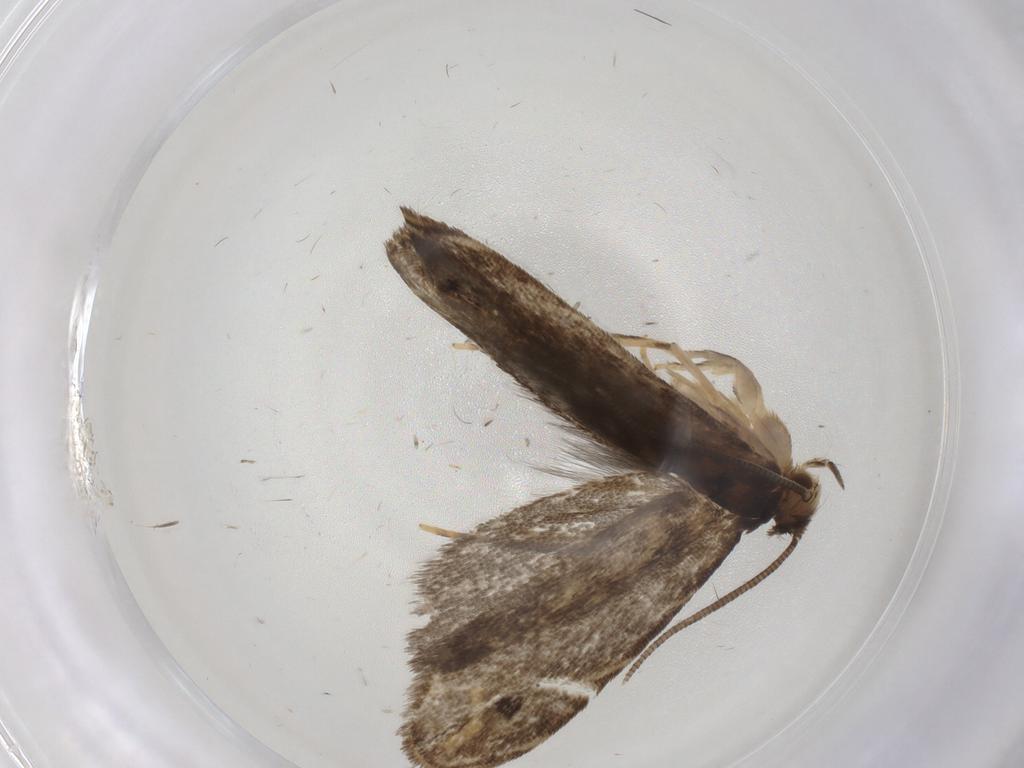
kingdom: Animalia
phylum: Arthropoda
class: Insecta
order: Lepidoptera
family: Dryadaulidae
